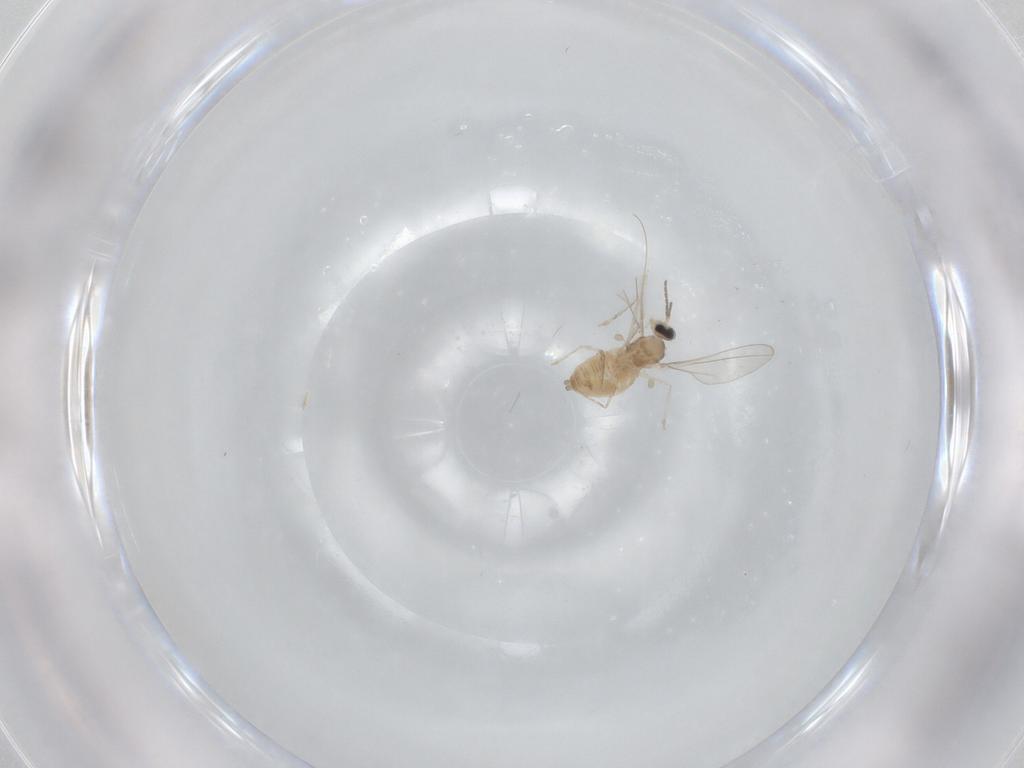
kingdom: Animalia
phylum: Arthropoda
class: Insecta
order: Diptera
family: Cecidomyiidae
